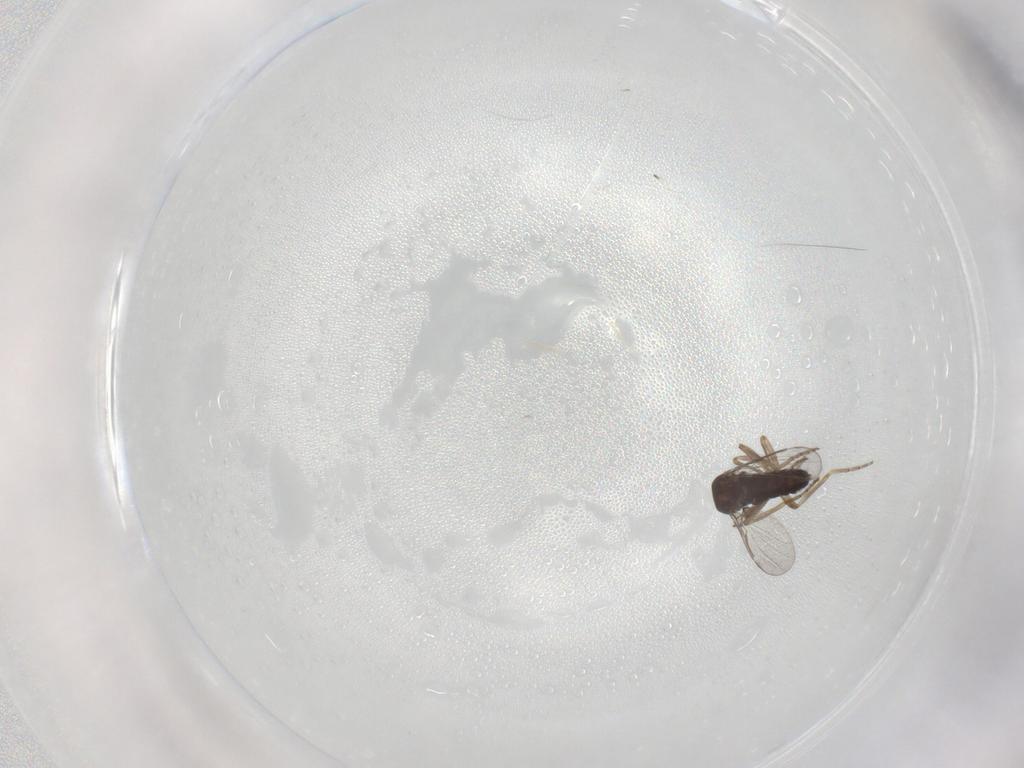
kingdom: Animalia
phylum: Arthropoda
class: Insecta
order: Diptera
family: Ceratopogonidae
